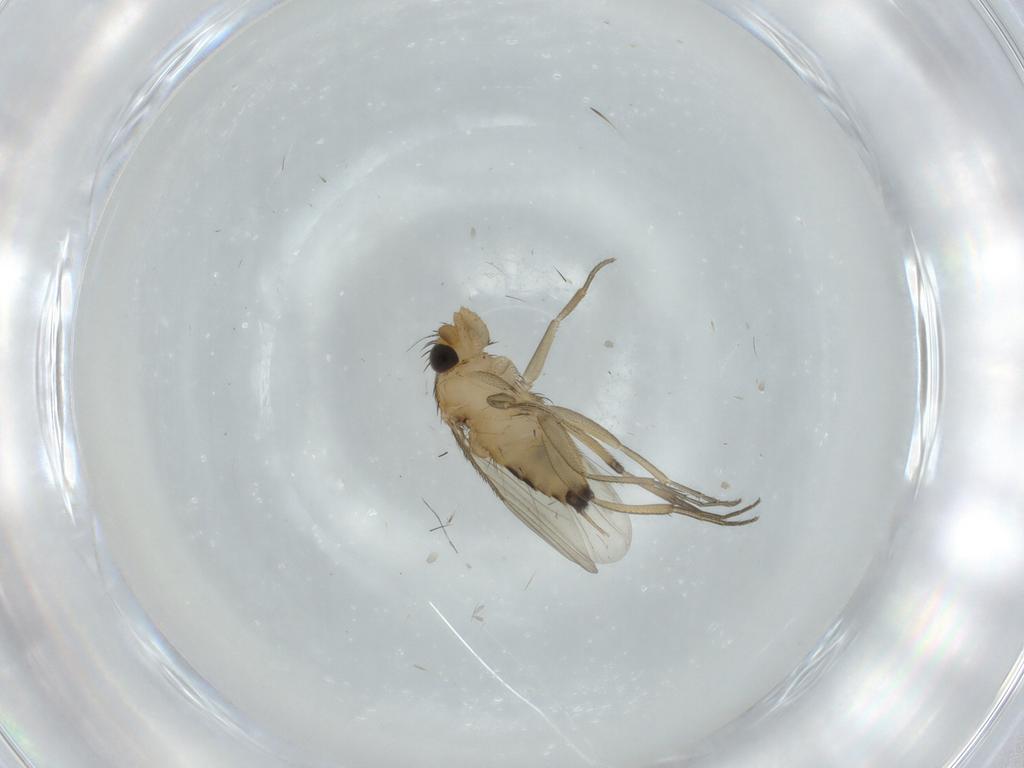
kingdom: Animalia
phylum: Arthropoda
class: Insecta
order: Diptera
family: Phoridae
